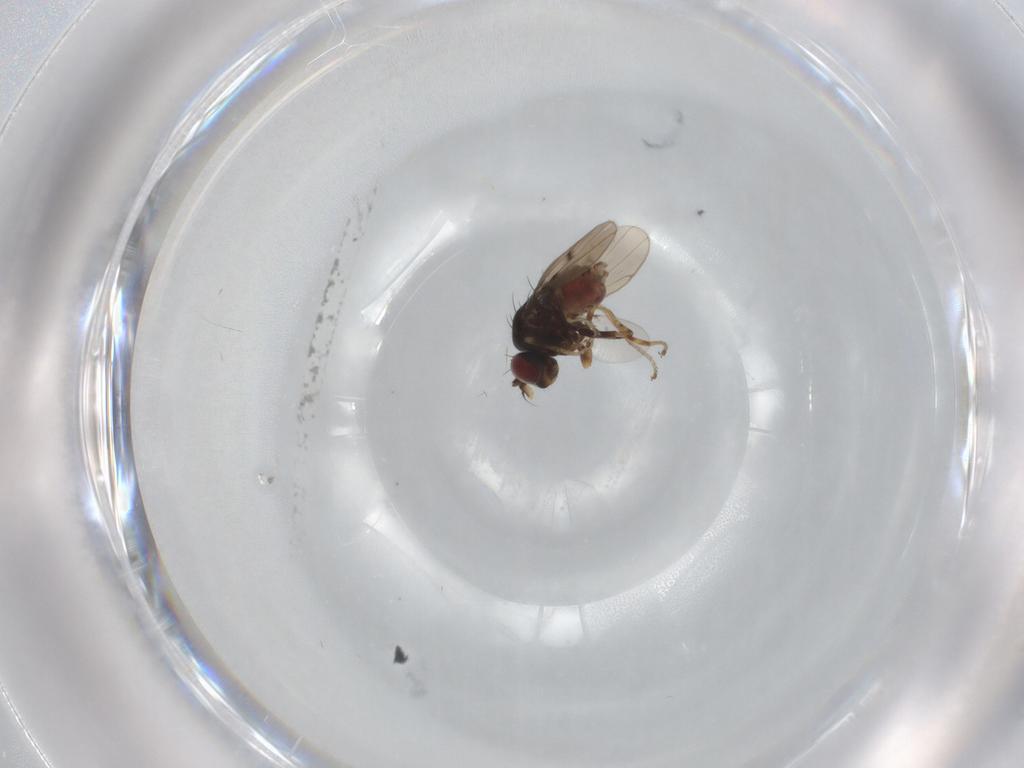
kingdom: Animalia
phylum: Arthropoda
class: Insecta
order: Diptera
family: Ephydridae
